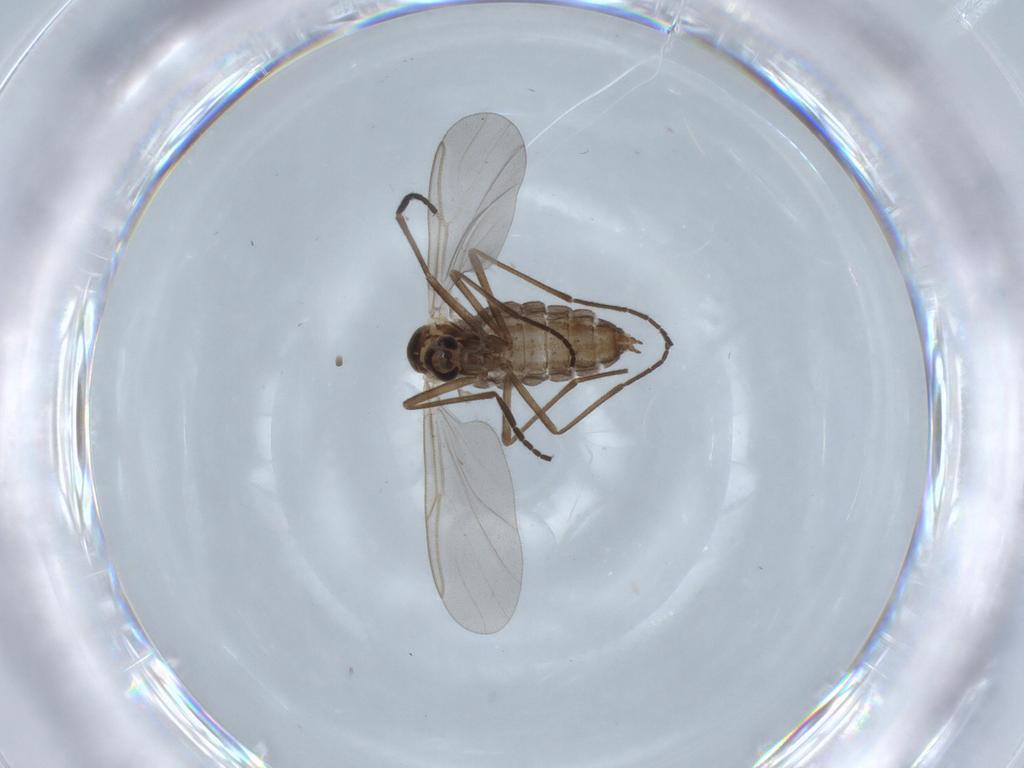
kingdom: Animalia
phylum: Arthropoda
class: Insecta
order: Diptera
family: Cecidomyiidae
